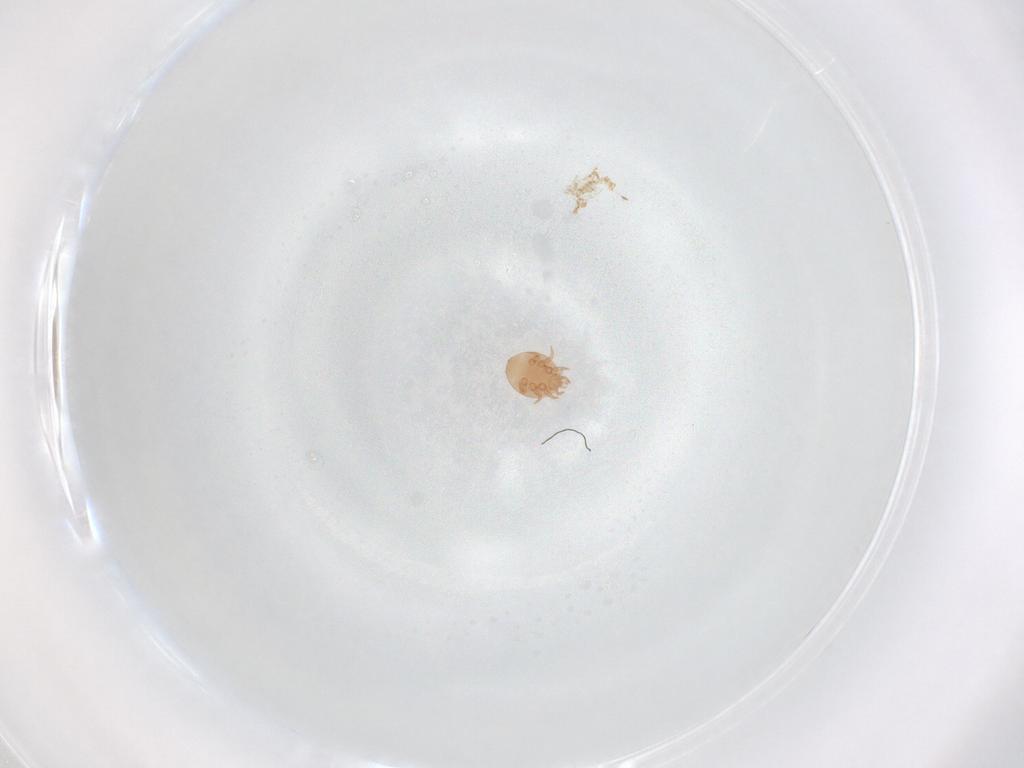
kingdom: Animalia
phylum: Arthropoda
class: Arachnida
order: Mesostigmata
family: Trematuridae
